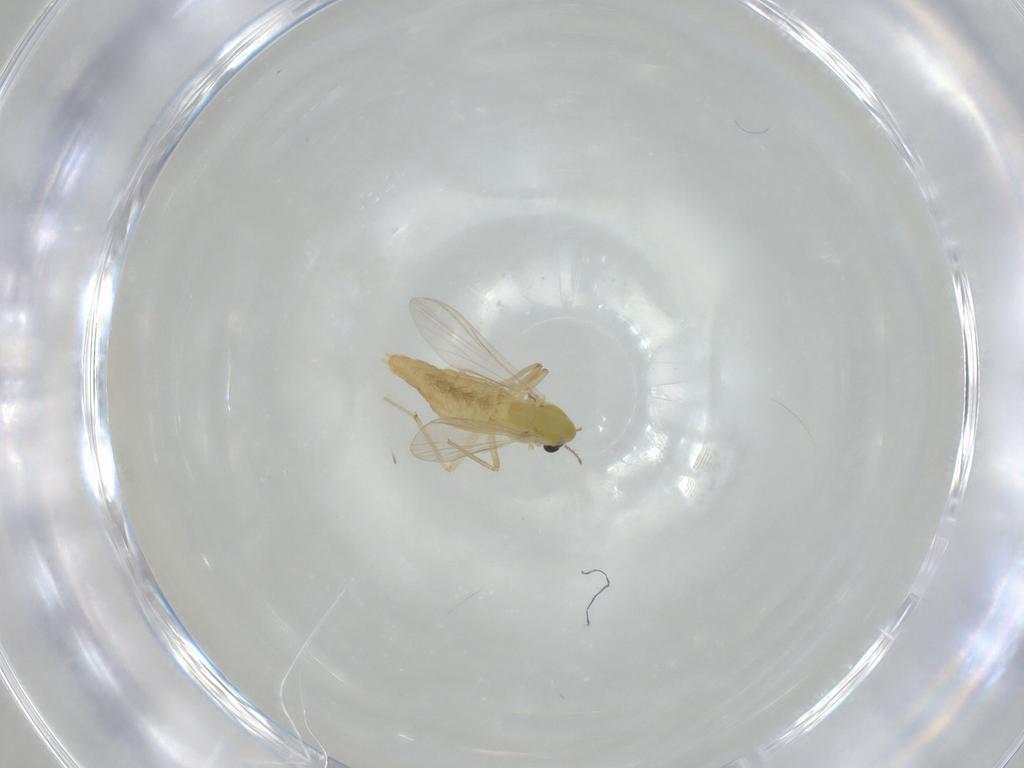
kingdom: Animalia
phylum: Arthropoda
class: Insecta
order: Diptera
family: Chironomidae
